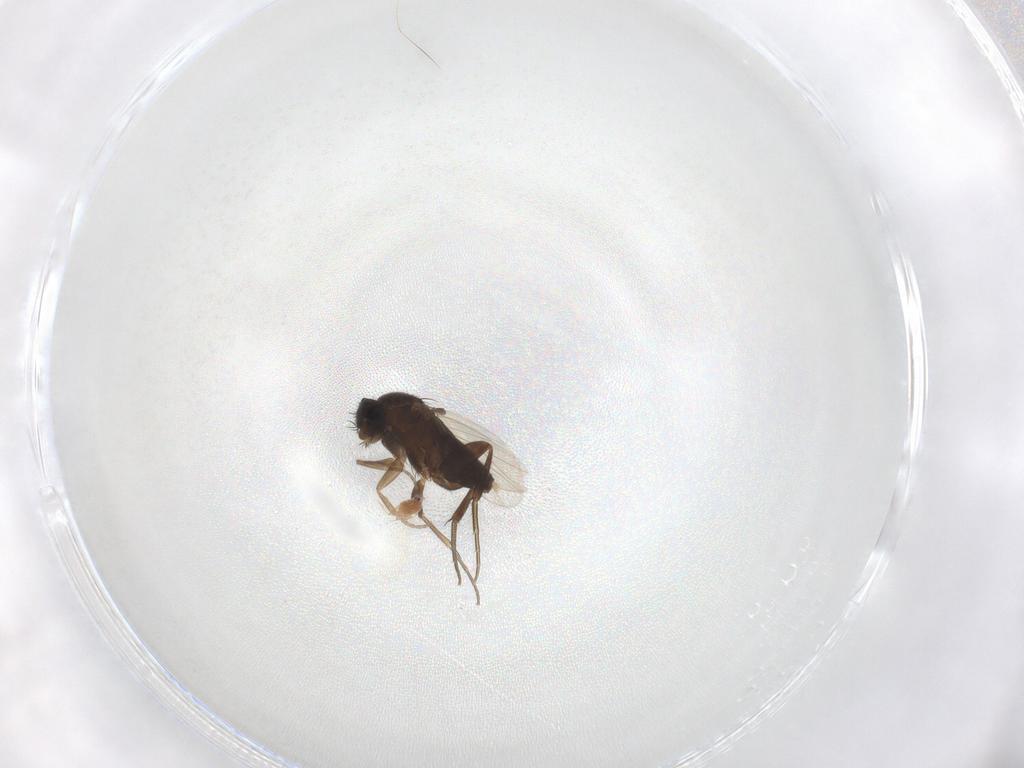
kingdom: Animalia
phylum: Arthropoda
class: Insecta
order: Diptera
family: Phoridae
